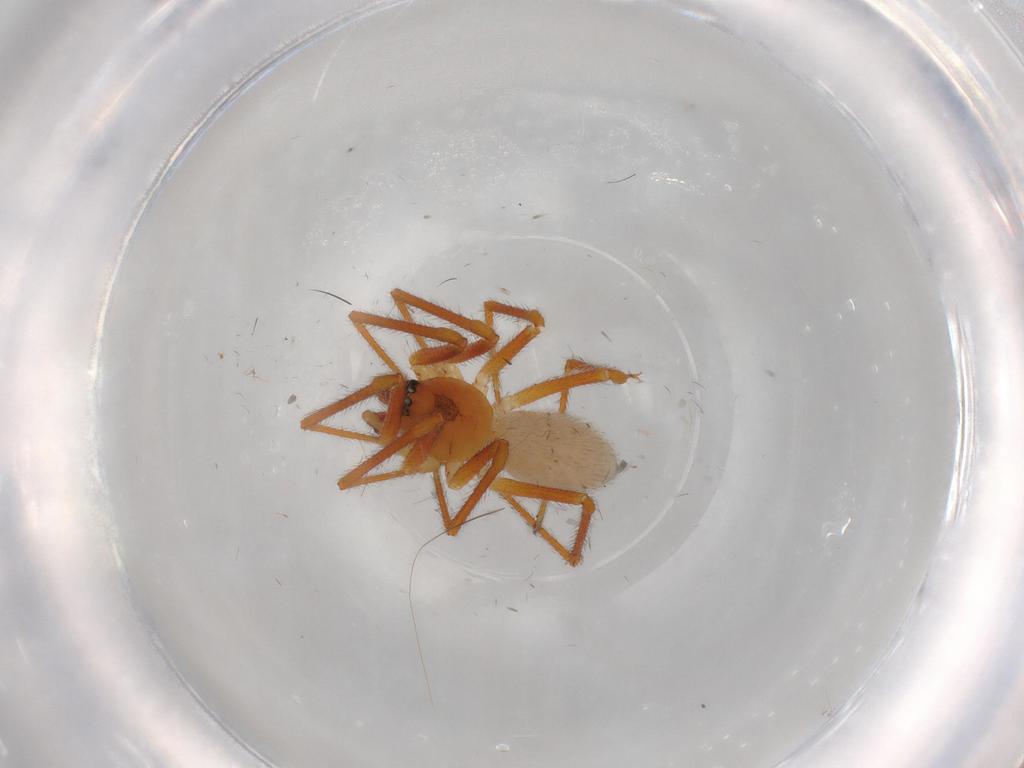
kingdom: Animalia
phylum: Arthropoda
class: Arachnida
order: Araneae
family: Linyphiidae
